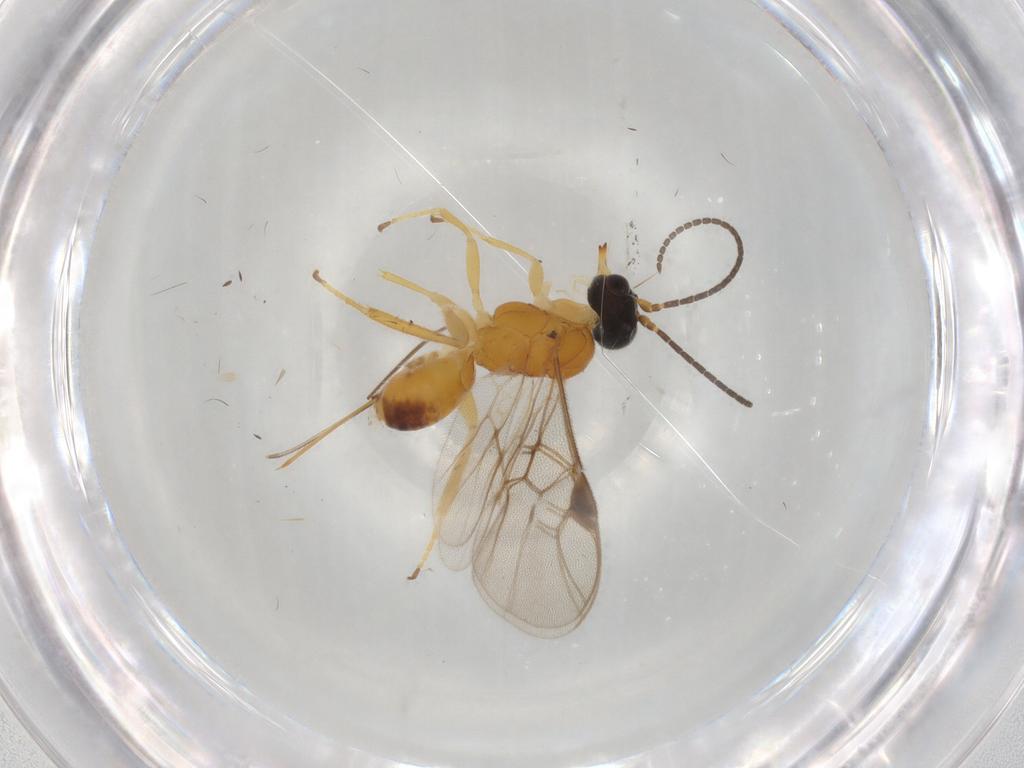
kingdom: Animalia
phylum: Arthropoda
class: Insecta
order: Hymenoptera
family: Braconidae
